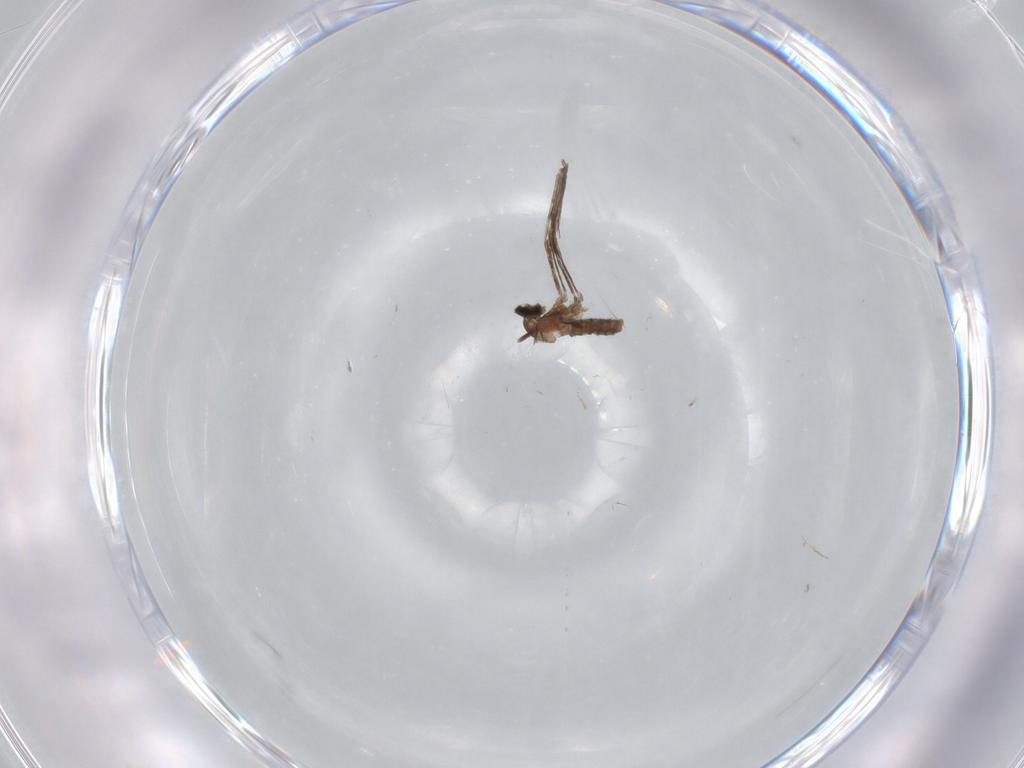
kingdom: Animalia
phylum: Arthropoda
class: Insecta
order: Diptera
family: Cecidomyiidae
